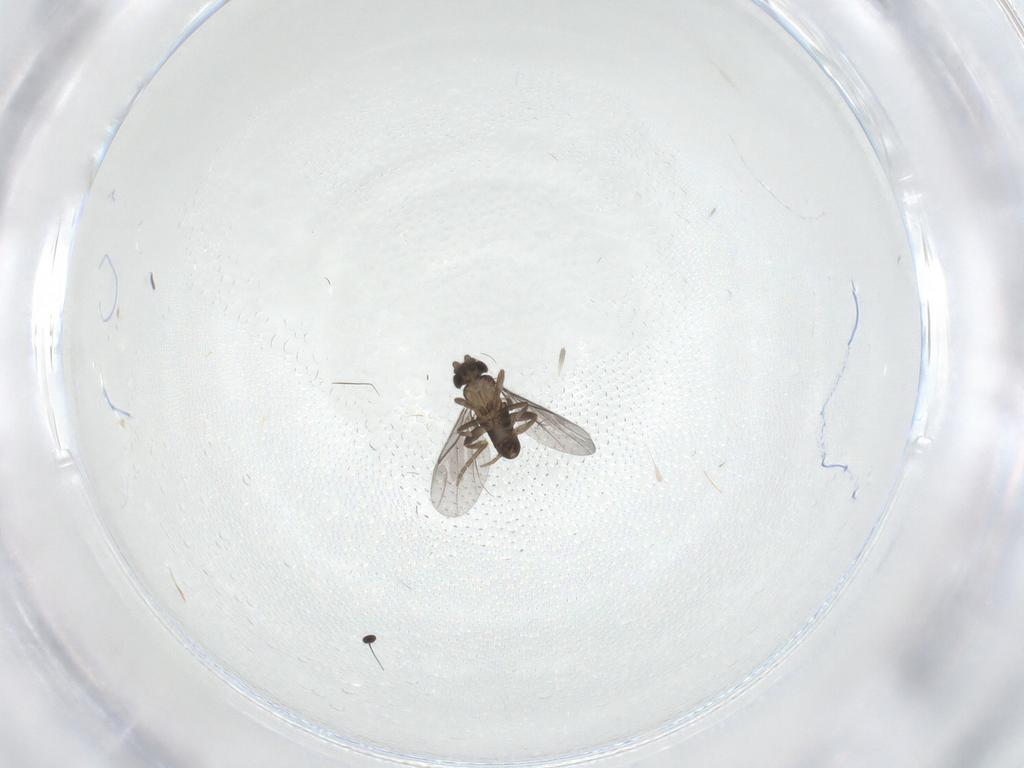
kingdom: Animalia
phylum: Arthropoda
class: Insecta
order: Diptera
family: Dolichopodidae
